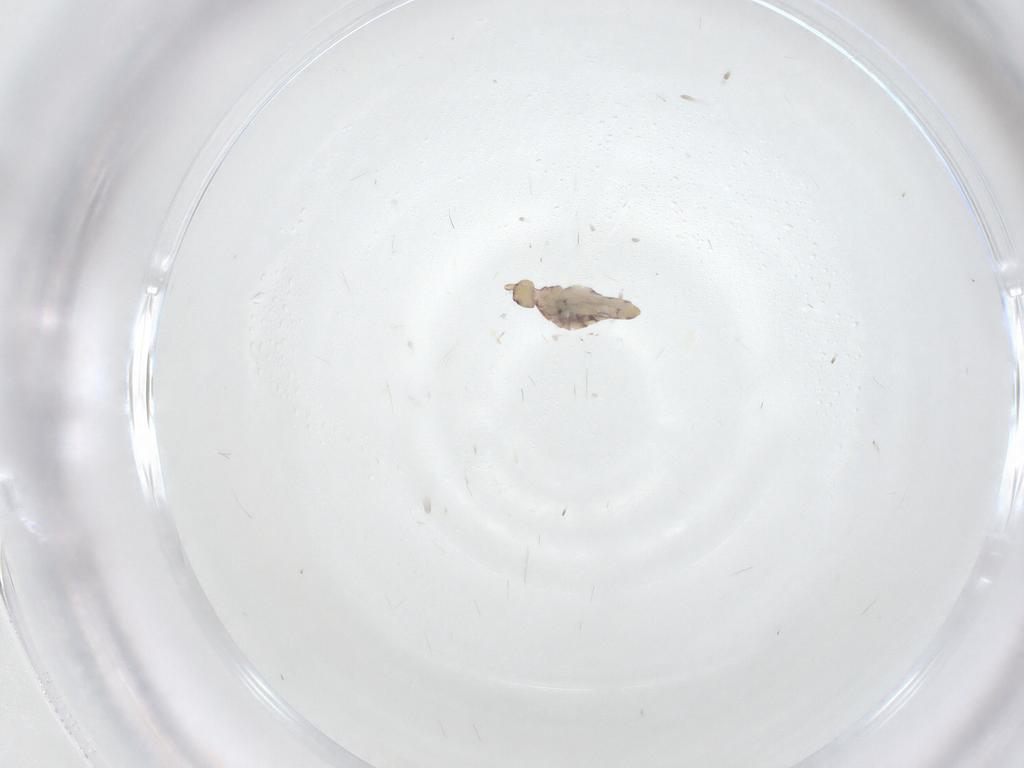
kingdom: Animalia
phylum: Arthropoda
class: Collembola
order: Entomobryomorpha
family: Entomobryidae
